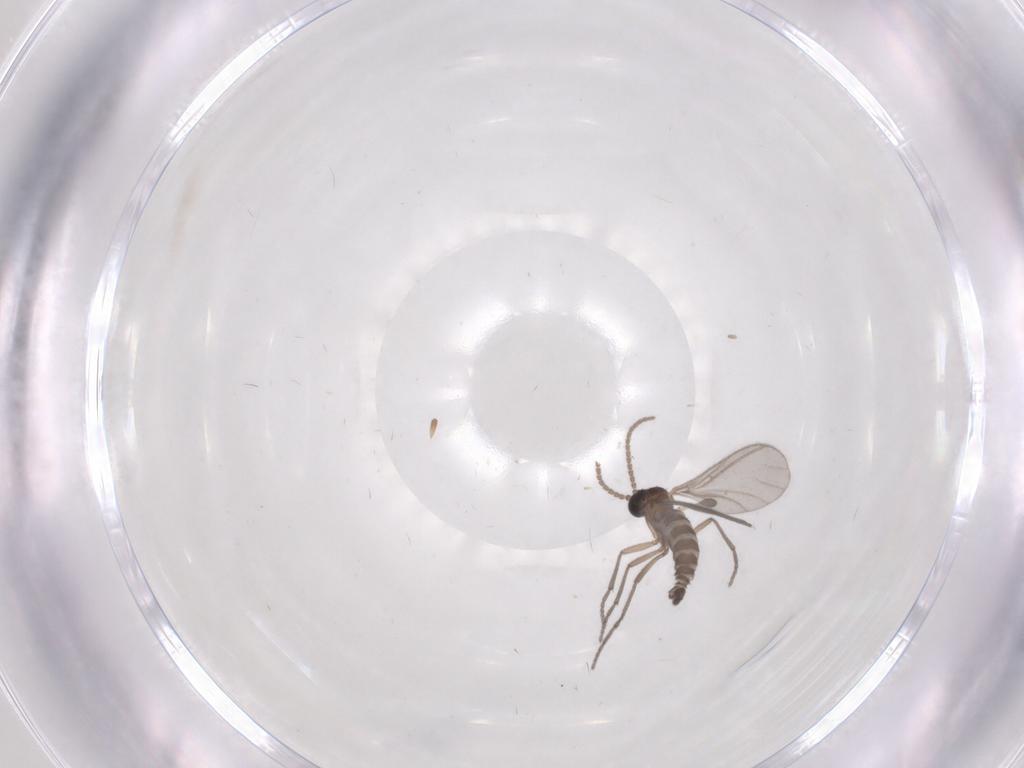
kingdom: Animalia
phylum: Arthropoda
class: Insecta
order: Diptera
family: Sciaridae
